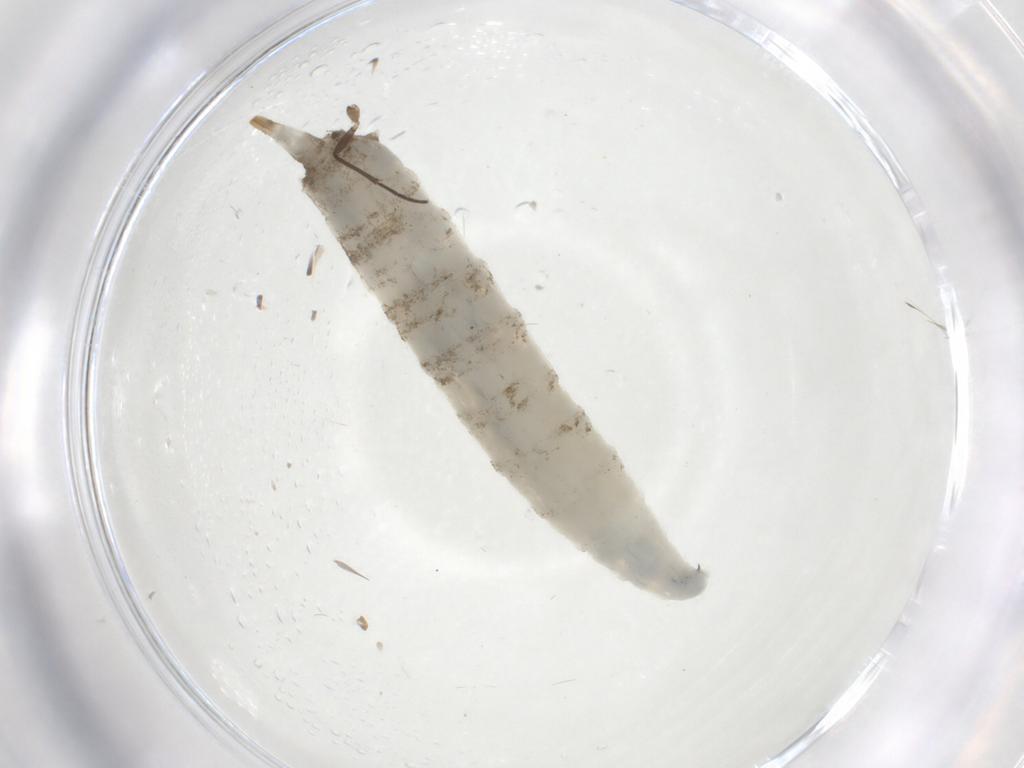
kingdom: Animalia
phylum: Arthropoda
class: Insecta
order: Diptera
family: Drosophilidae
